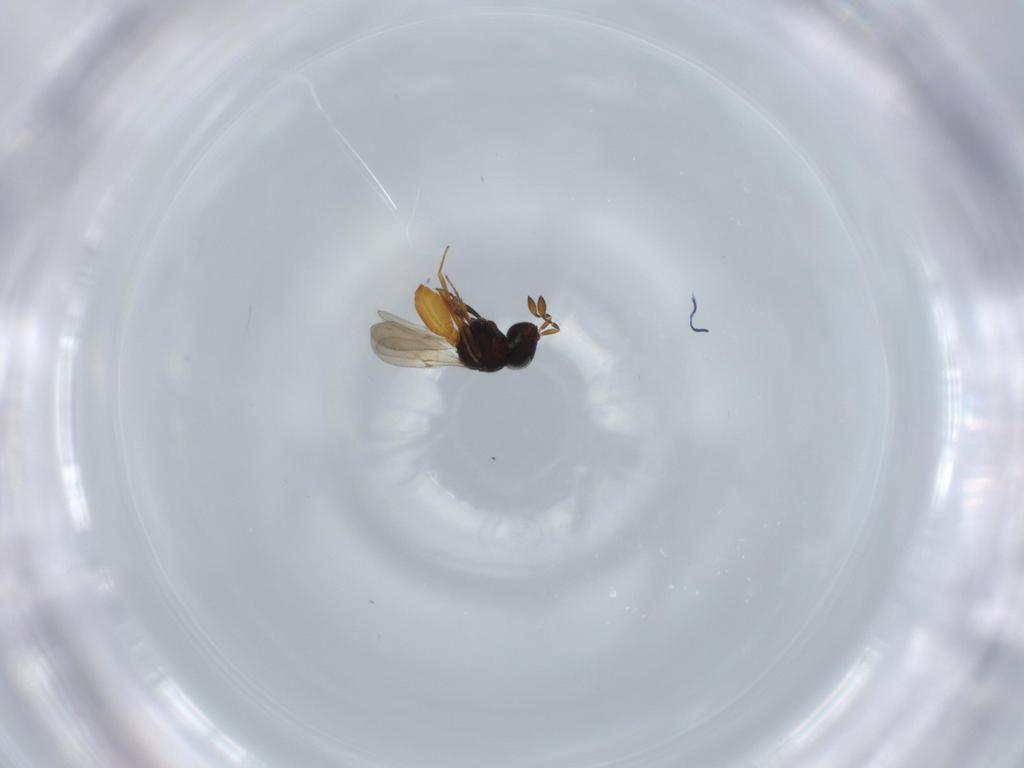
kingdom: Animalia
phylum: Arthropoda
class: Insecta
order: Hymenoptera
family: Scelionidae
